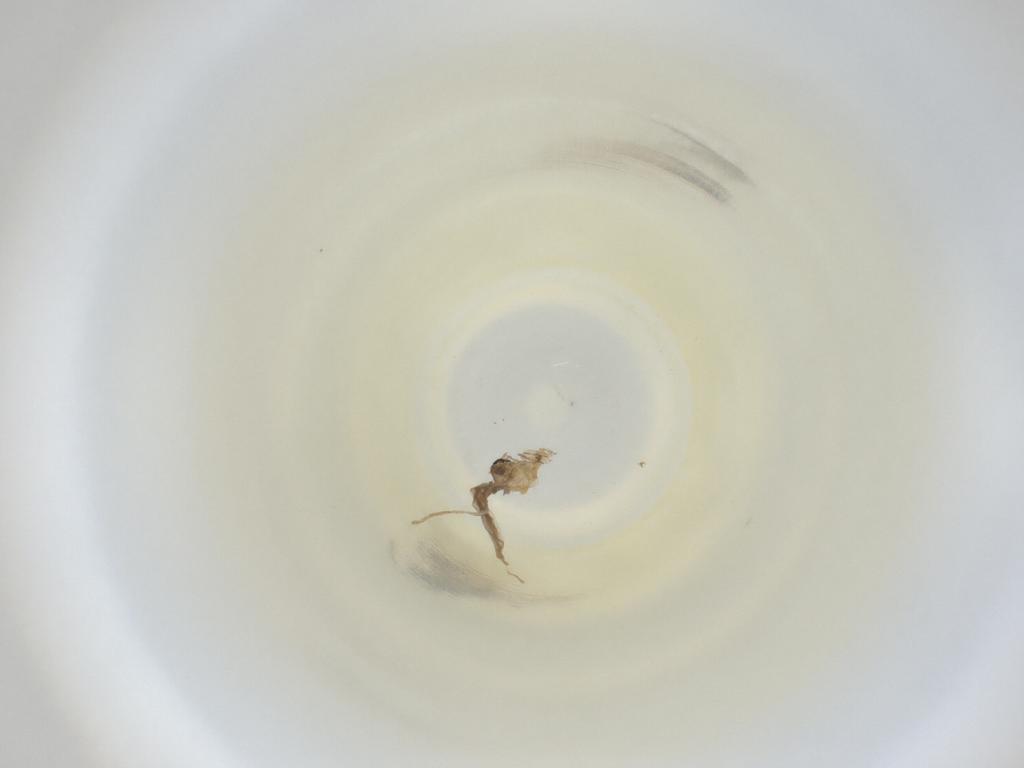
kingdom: Animalia
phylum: Arthropoda
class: Insecta
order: Diptera
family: Cecidomyiidae
